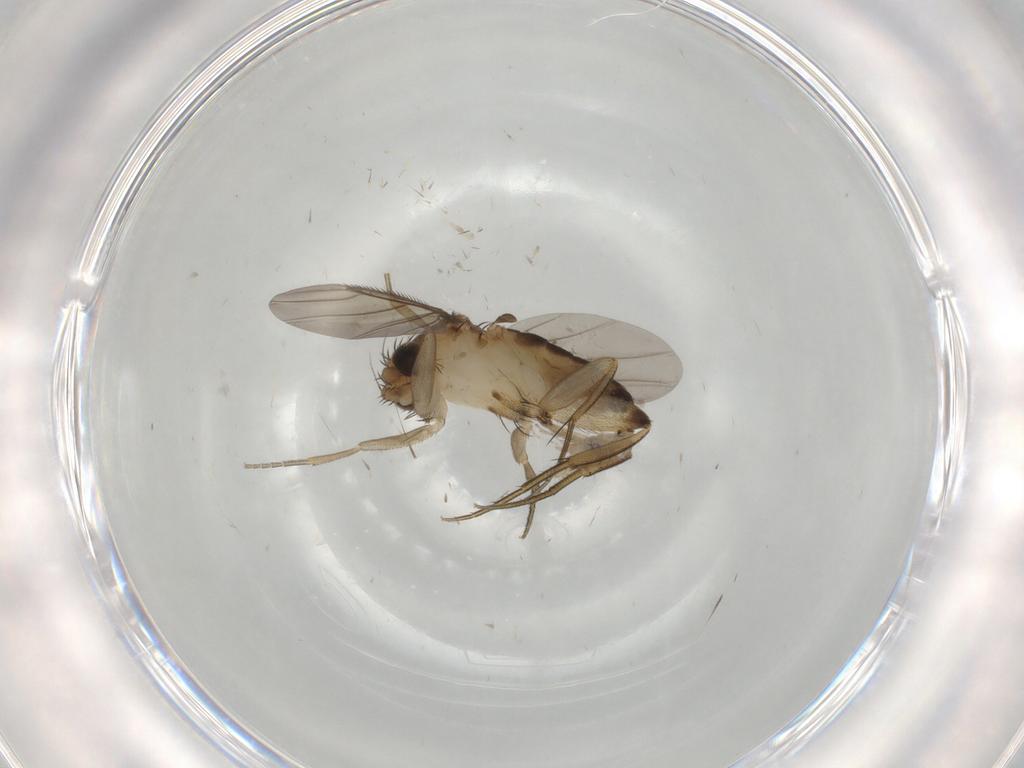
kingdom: Animalia
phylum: Arthropoda
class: Insecta
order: Diptera
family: Phoridae
